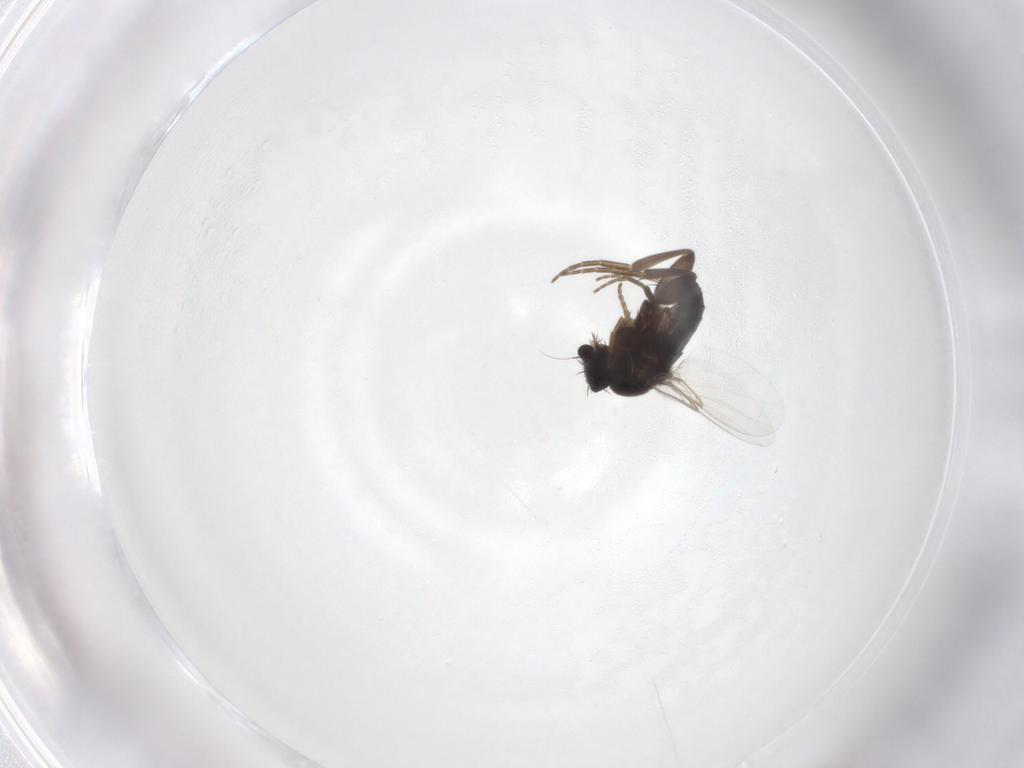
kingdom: Animalia
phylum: Arthropoda
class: Insecta
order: Diptera
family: Phoridae
